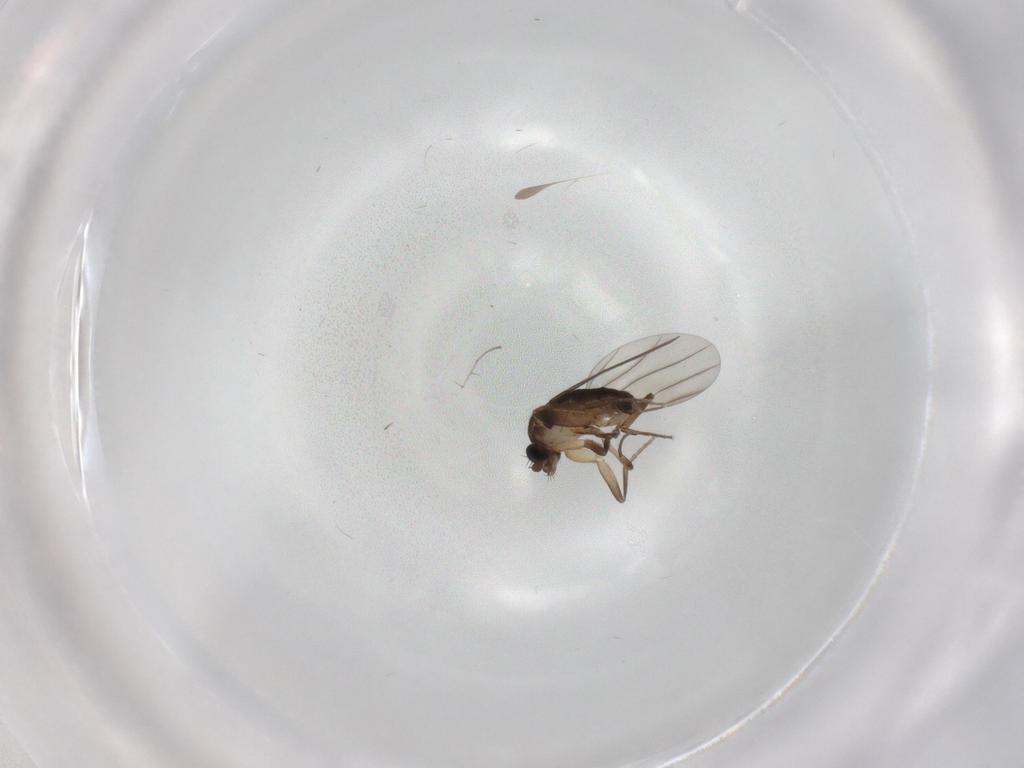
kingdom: Animalia
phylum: Arthropoda
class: Insecta
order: Diptera
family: Phoridae
